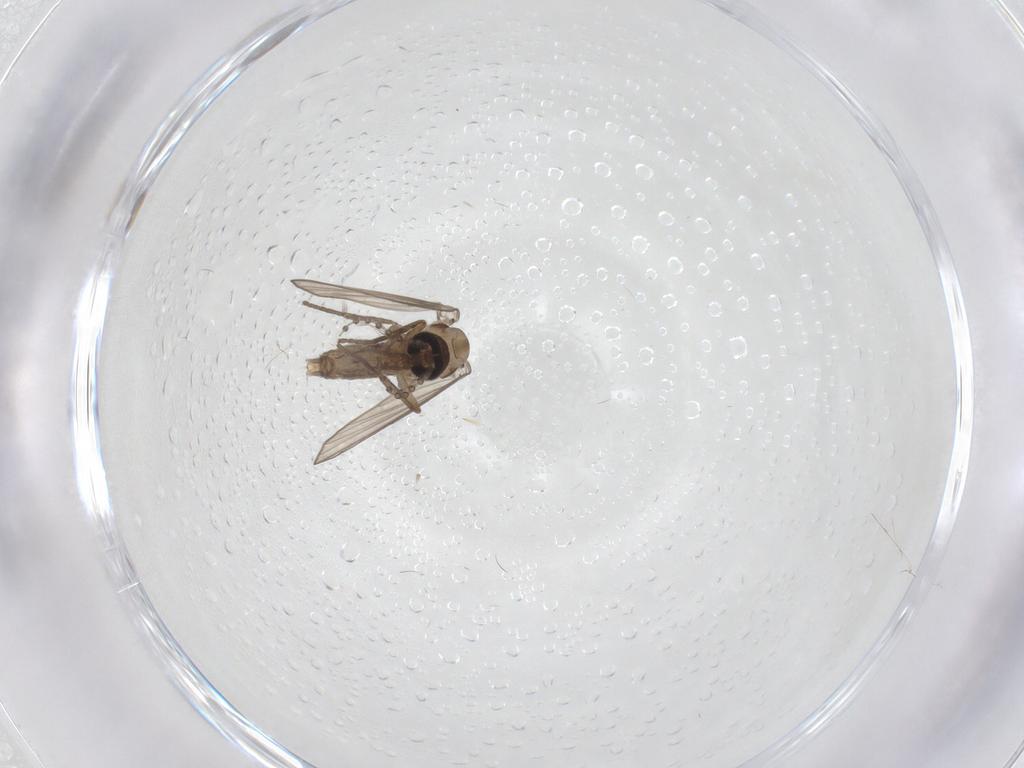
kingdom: Animalia
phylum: Arthropoda
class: Insecta
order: Diptera
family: Psychodidae
